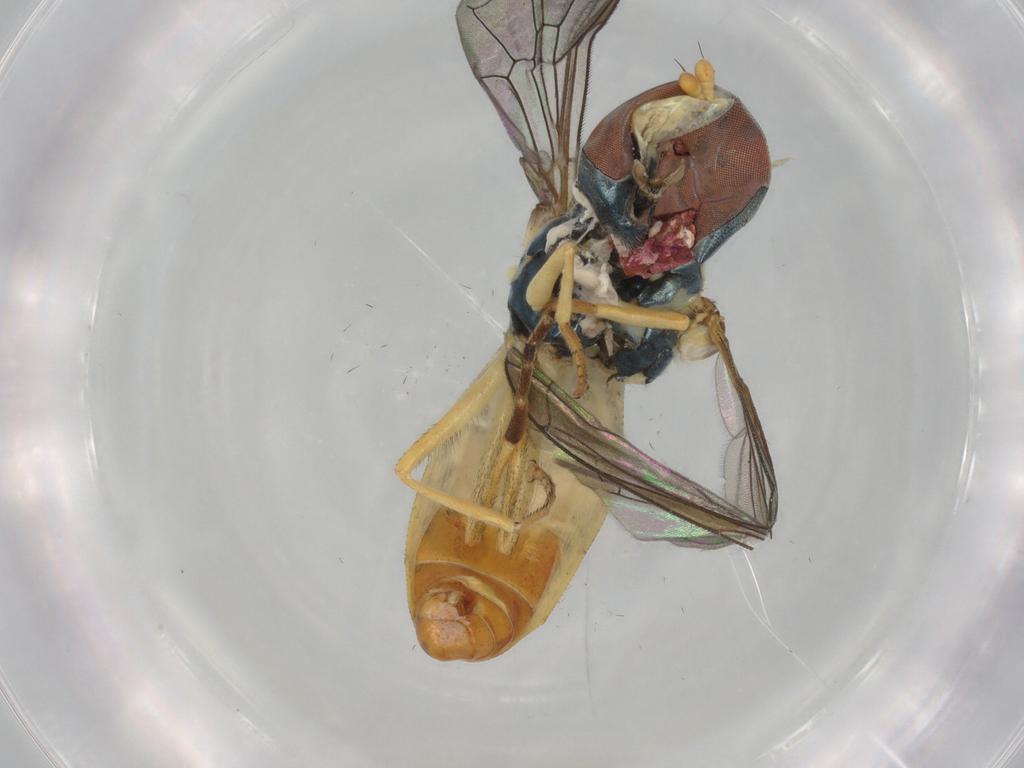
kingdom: Animalia
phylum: Arthropoda
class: Insecta
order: Diptera
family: Syrphidae
